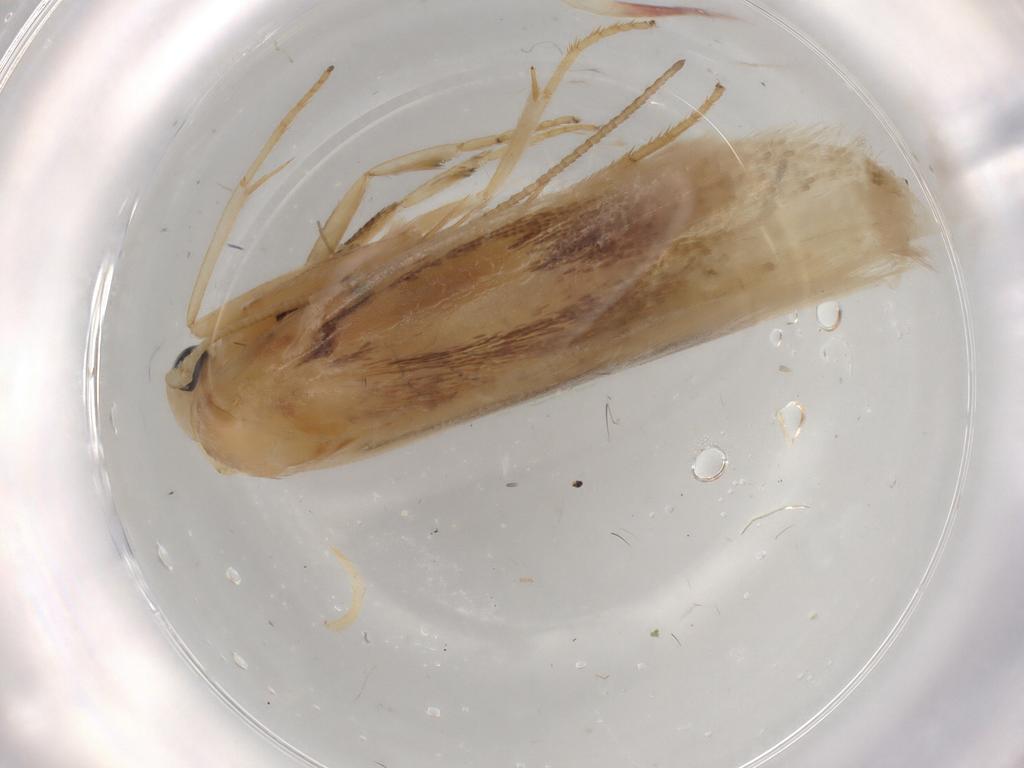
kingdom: Animalia
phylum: Arthropoda
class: Insecta
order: Lepidoptera
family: Geometridae
